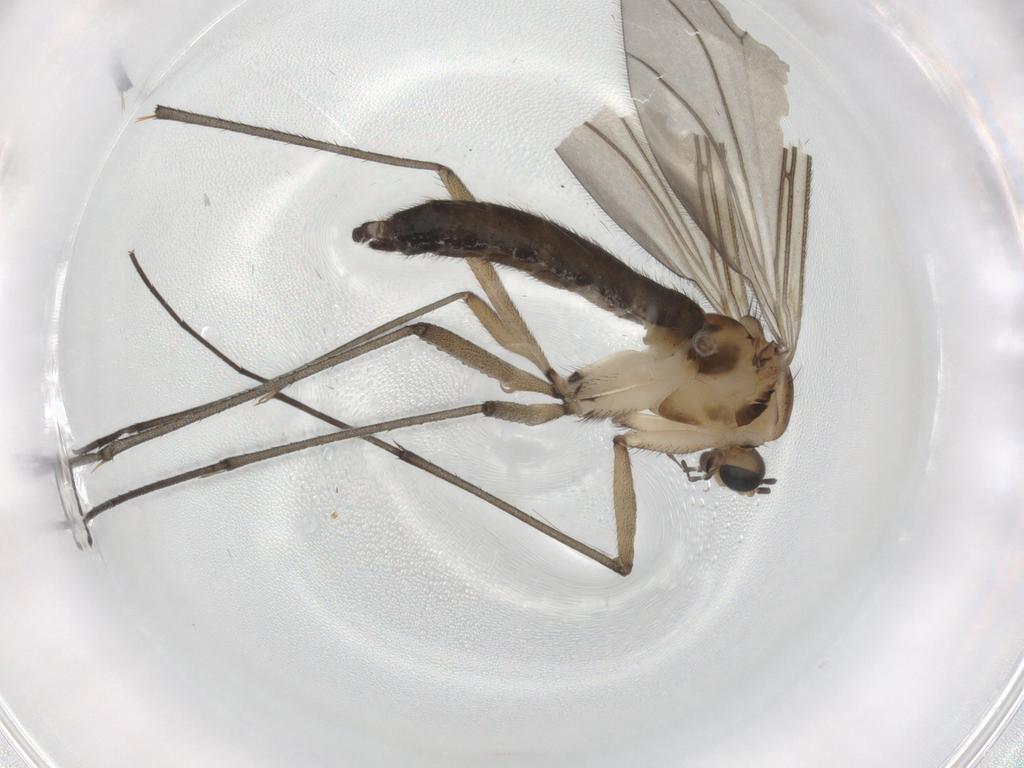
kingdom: Animalia
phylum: Arthropoda
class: Insecta
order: Diptera
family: Sciaridae
